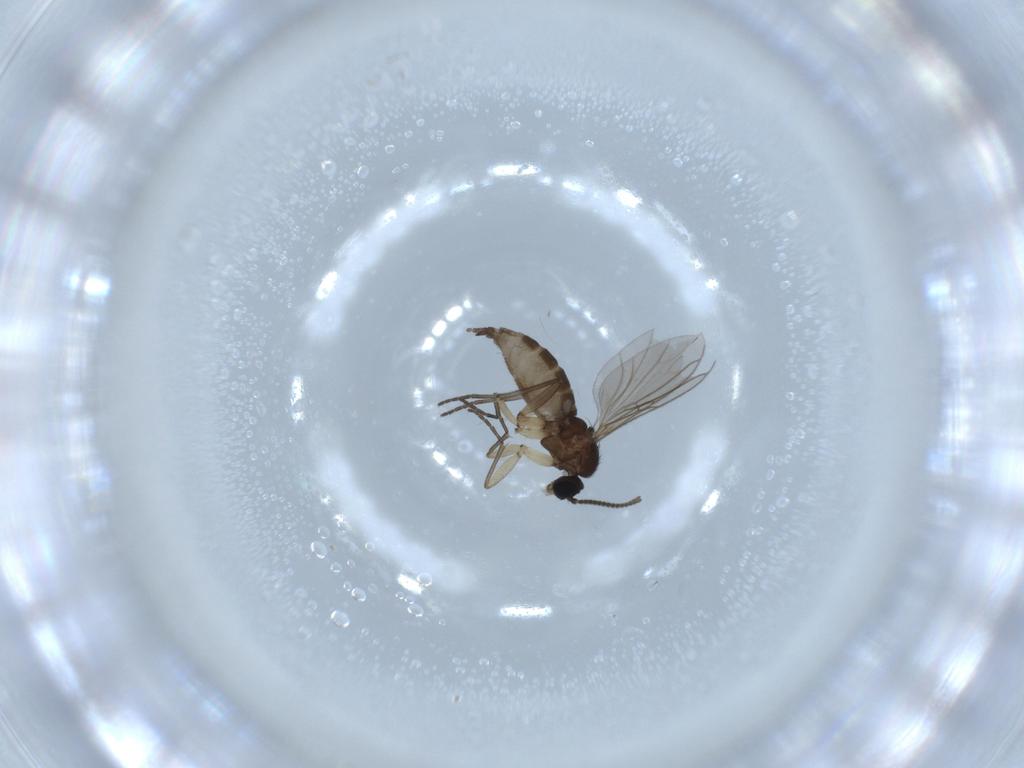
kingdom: Animalia
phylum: Arthropoda
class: Insecta
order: Diptera
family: Sciaridae
